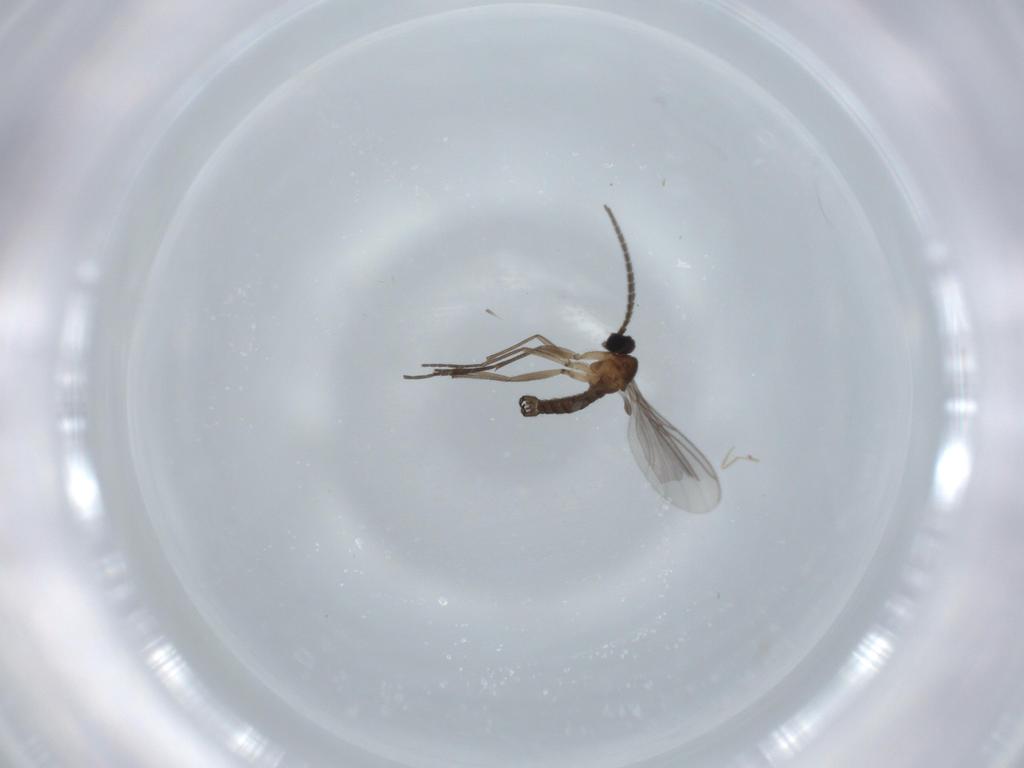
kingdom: Animalia
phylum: Arthropoda
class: Insecta
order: Diptera
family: Sciaridae
